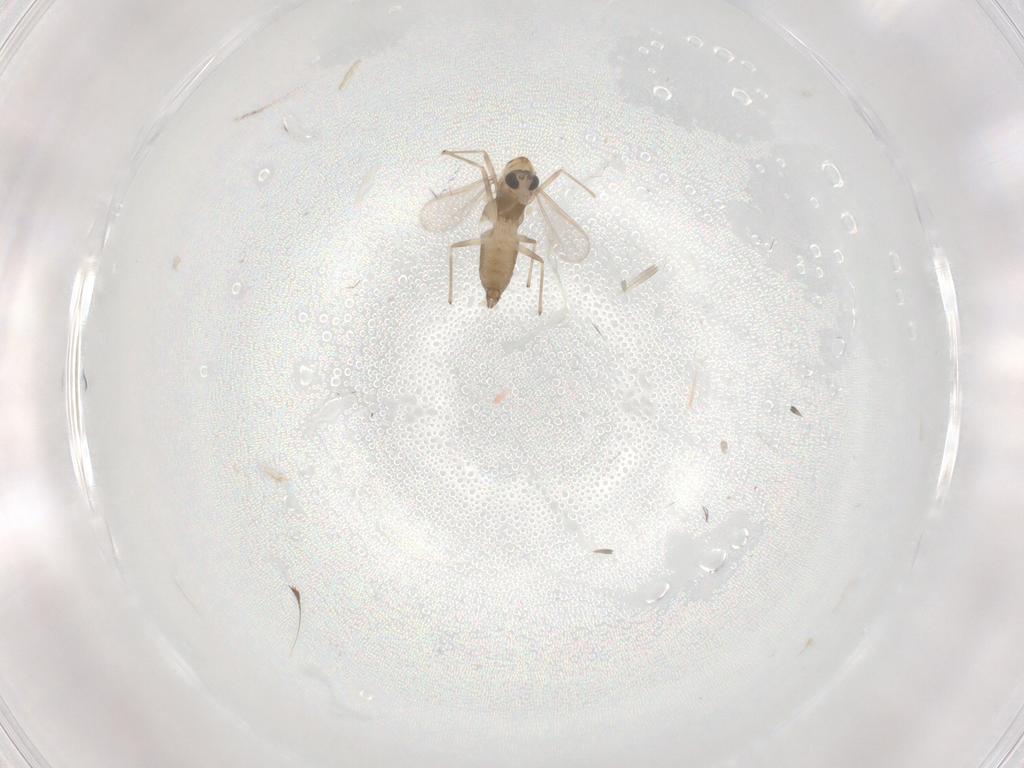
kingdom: Animalia
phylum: Arthropoda
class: Insecta
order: Diptera
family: Chironomidae
